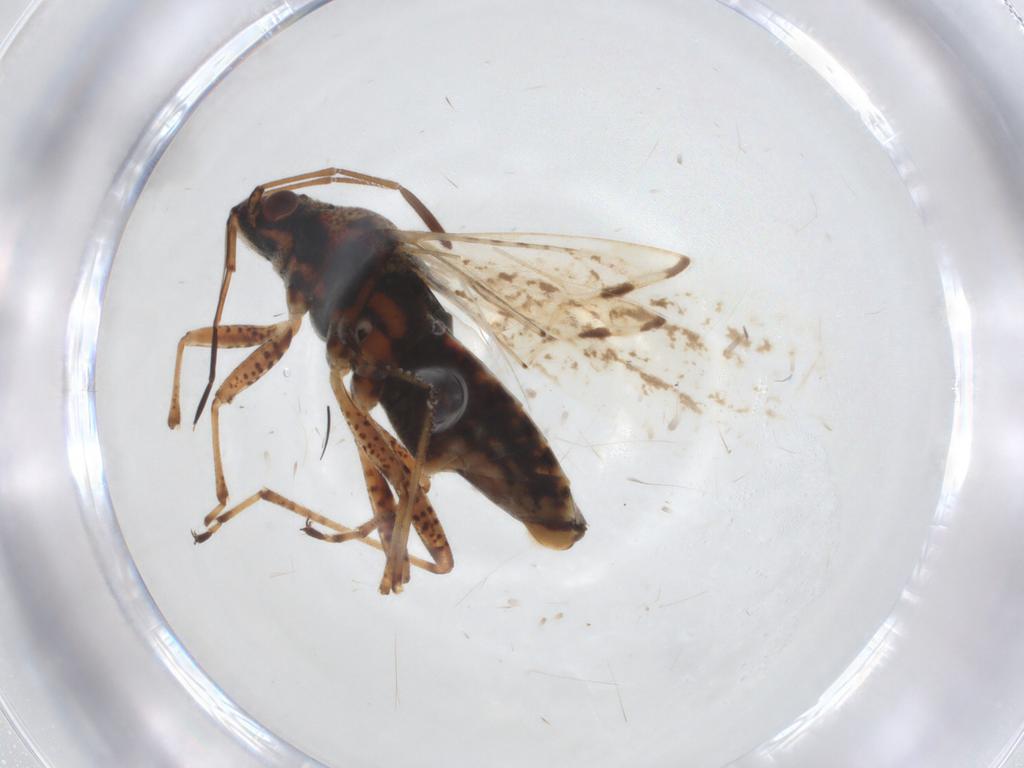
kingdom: Animalia
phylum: Arthropoda
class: Insecta
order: Hemiptera
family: Lygaeidae
